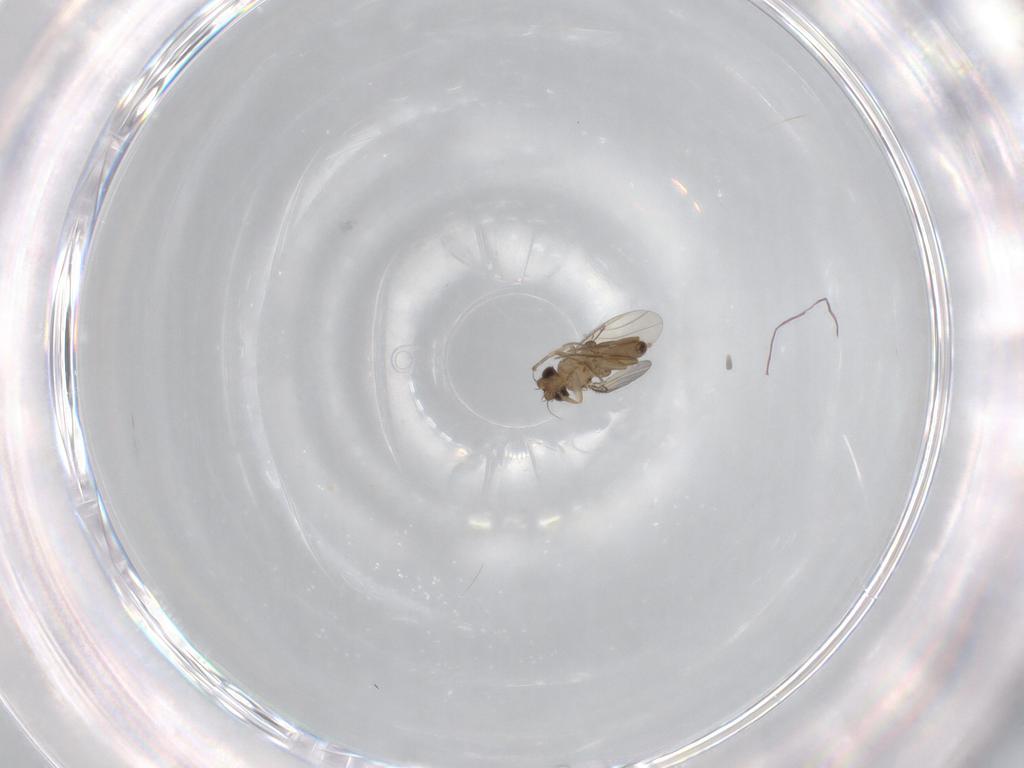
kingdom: Animalia
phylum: Arthropoda
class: Insecta
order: Diptera
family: Phoridae
